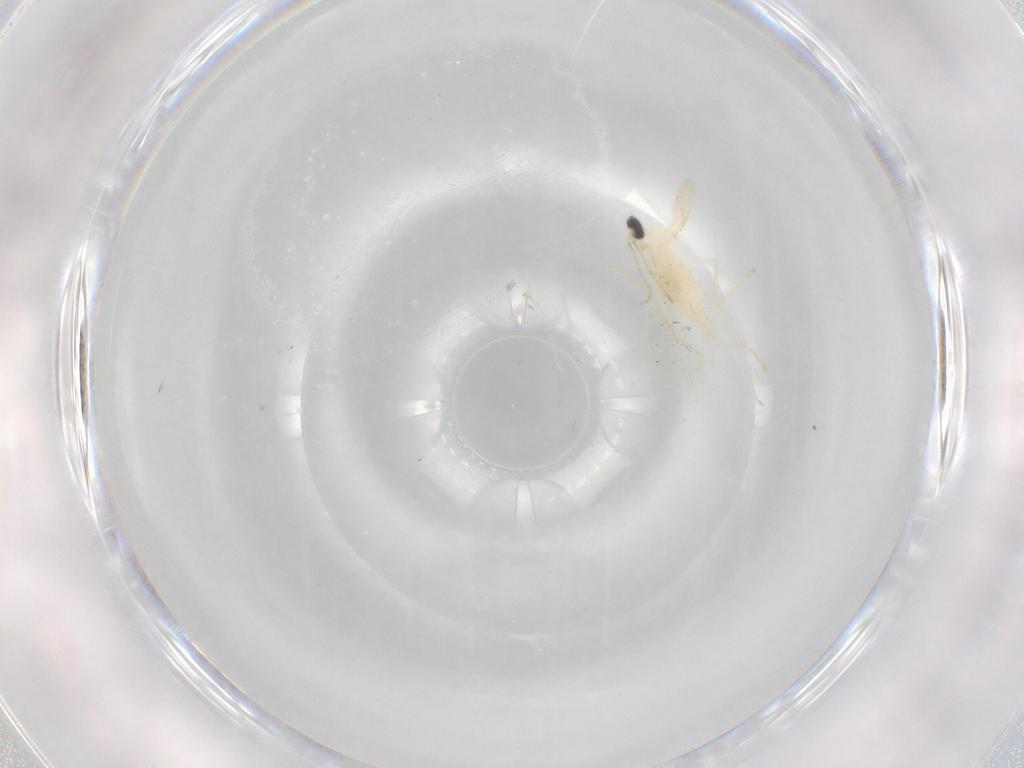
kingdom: Animalia
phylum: Arthropoda
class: Insecta
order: Diptera
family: Cecidomyiidae
